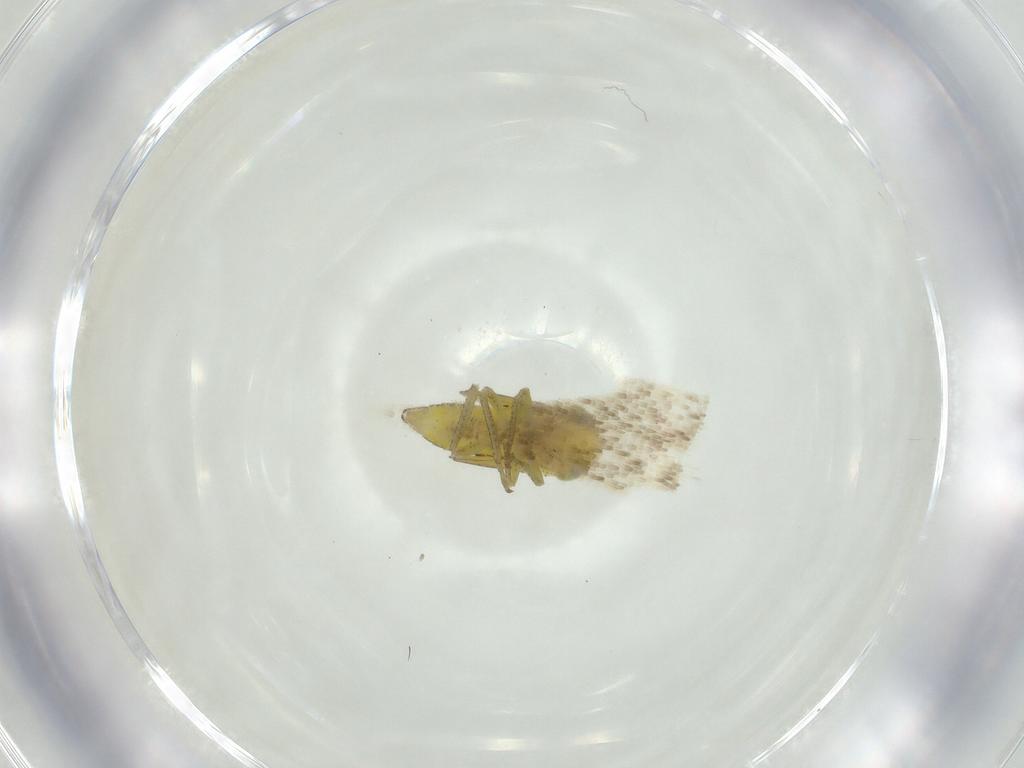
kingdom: Animalia
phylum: Arthropoda
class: Insecta
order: Hemiptera
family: Cicadellidae
